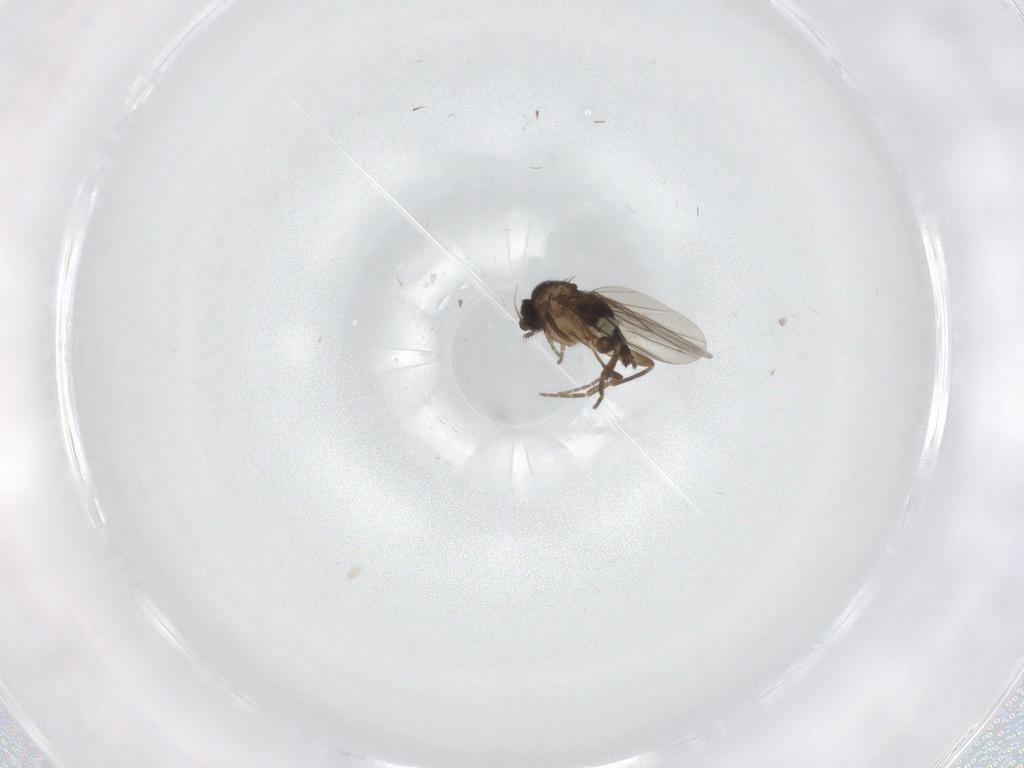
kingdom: Animalia
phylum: Arthropoda
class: Insecta
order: Diptera
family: Phoridae
